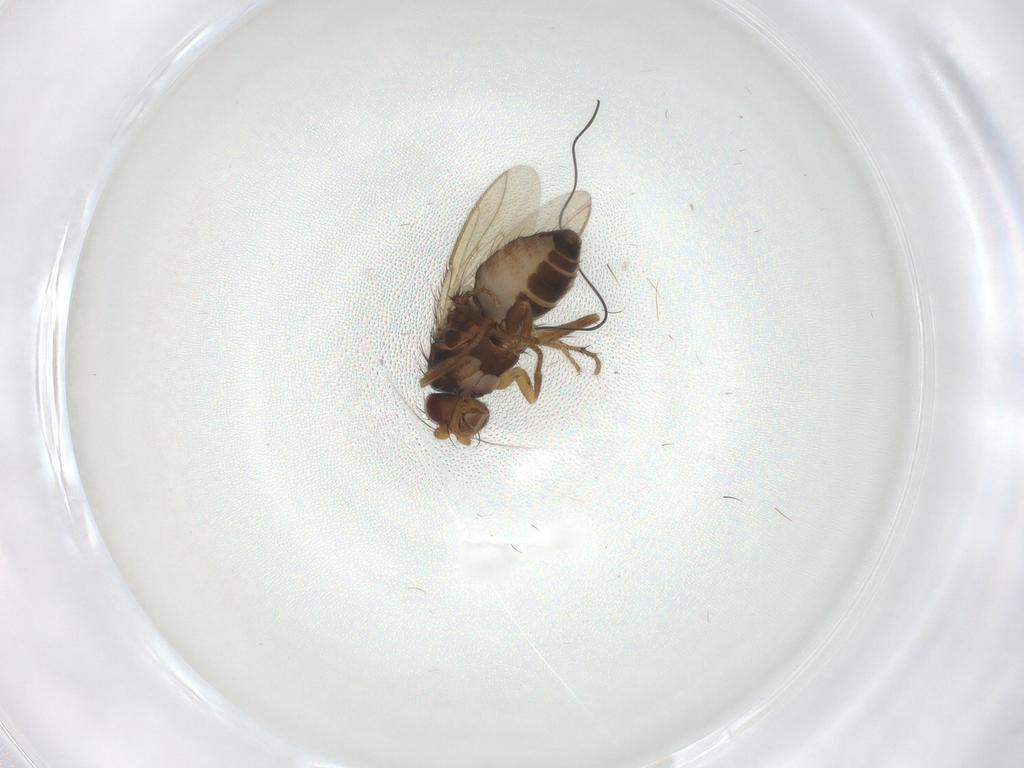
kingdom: Animalia
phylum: Arthropoda
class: Insecta
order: Diptera
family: Sphaeroceridae
